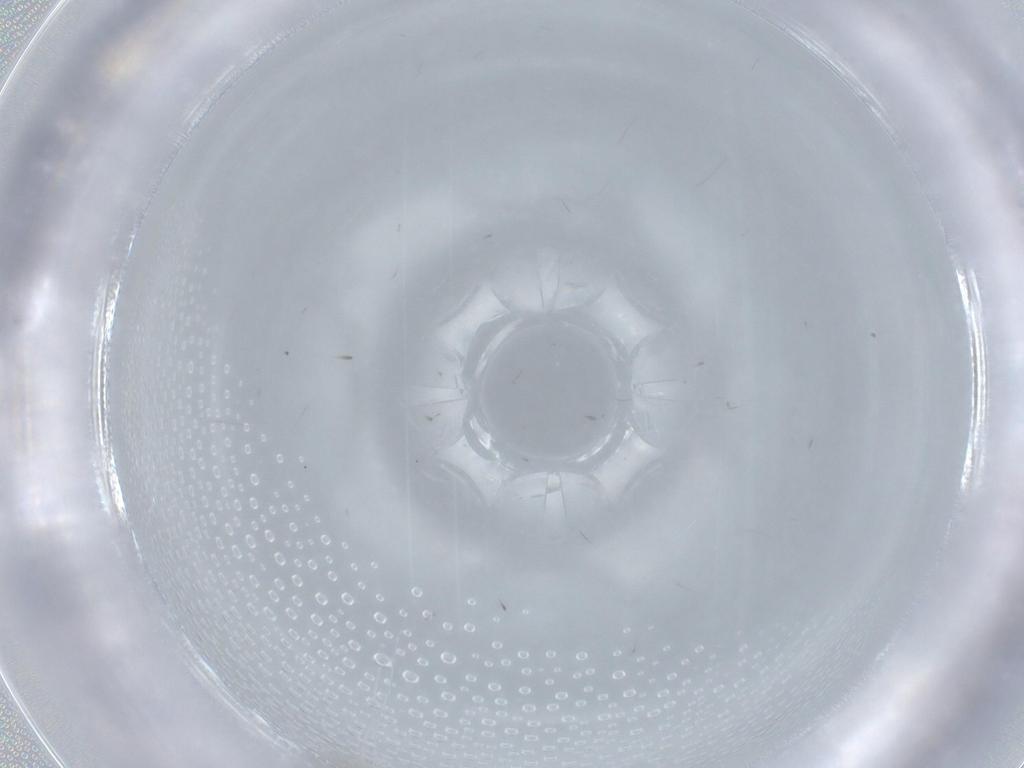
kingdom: Animalia
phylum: Arthropoda
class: Insecta
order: Diptera
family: Phoridae
